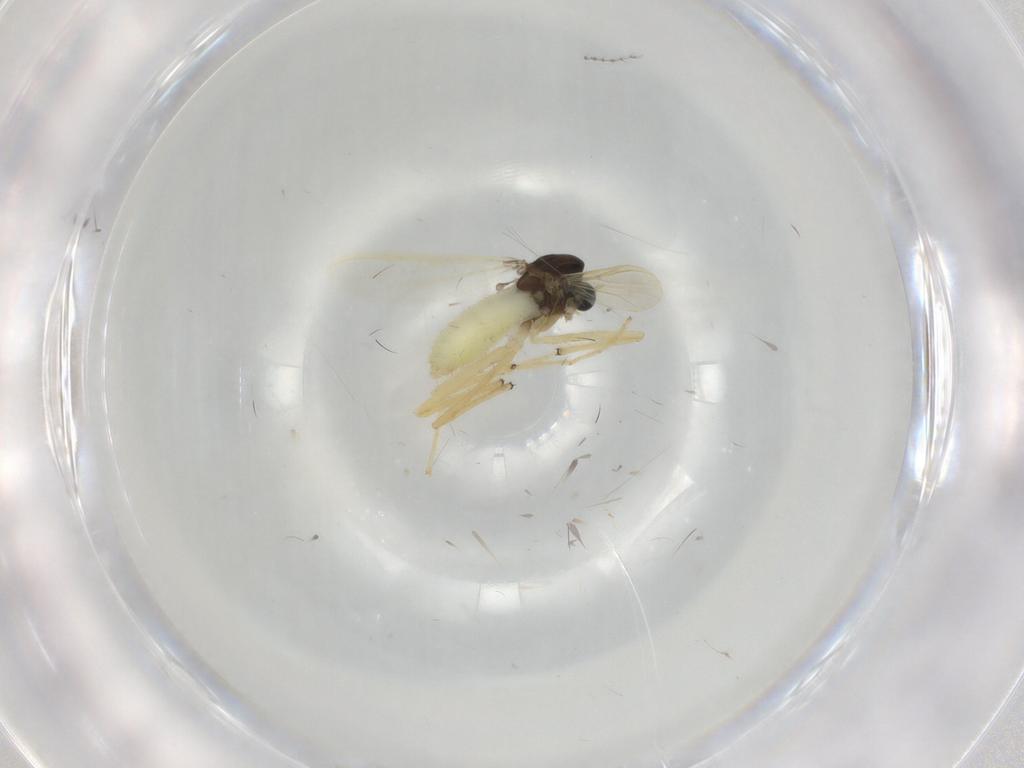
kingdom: Animalia
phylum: Arthropoda
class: Insecta
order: Diptera
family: Chironomidae
